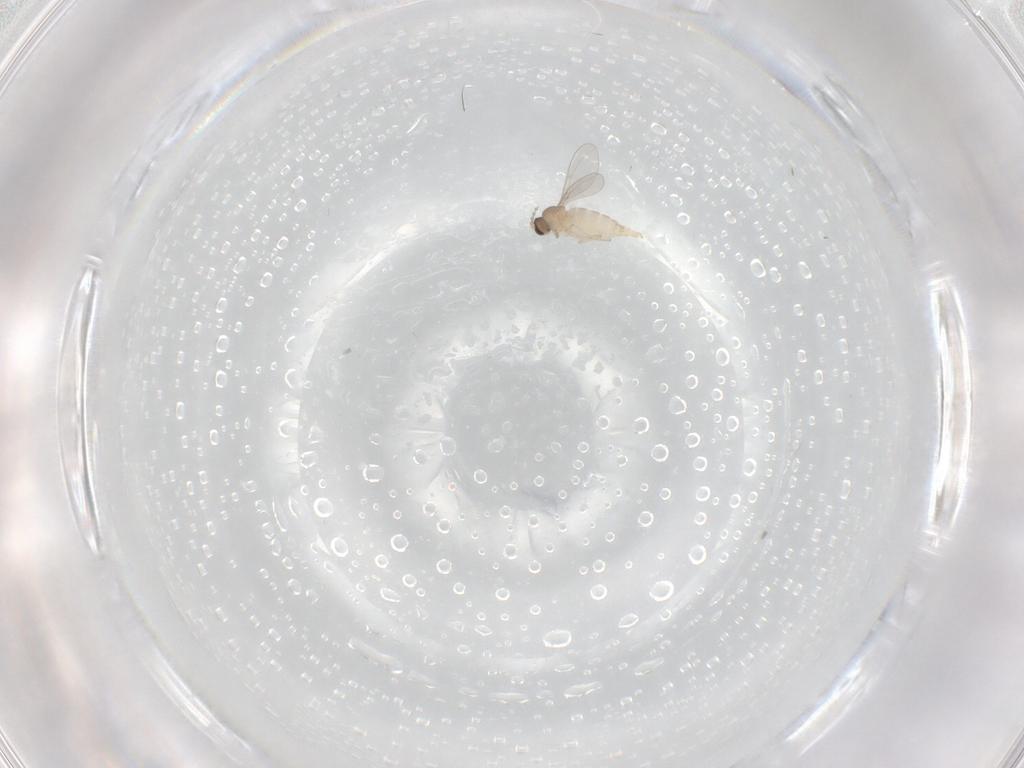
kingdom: Animalia
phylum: Arthropoda
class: Insecta
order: Diptera
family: Cecidomyiidae
